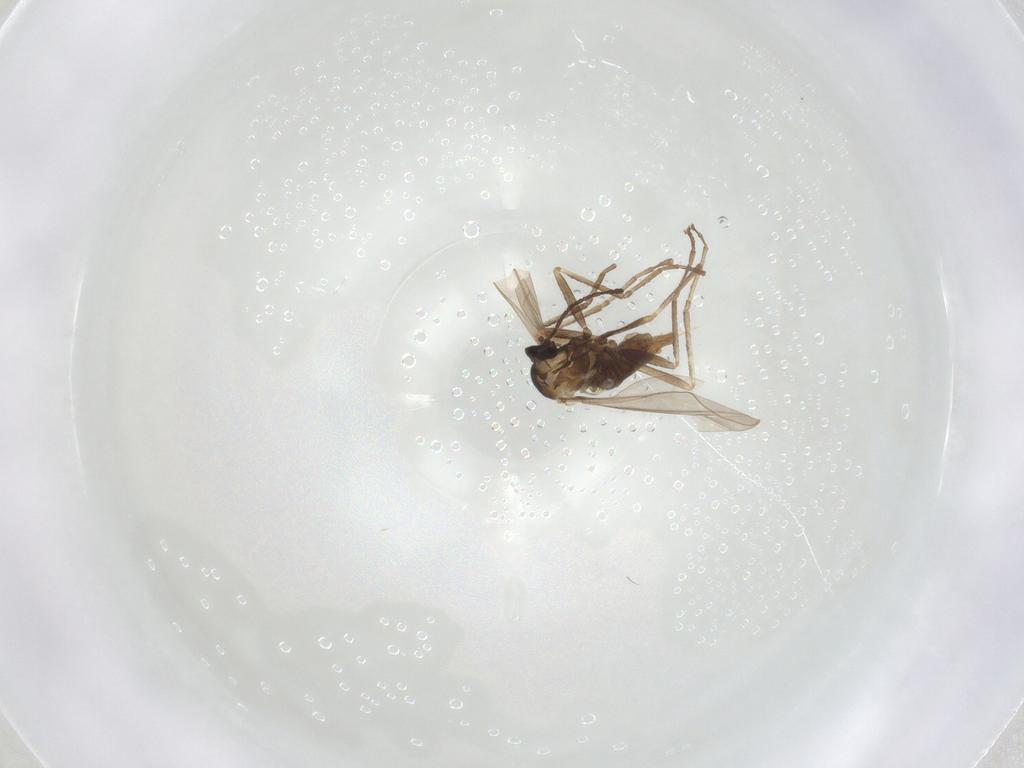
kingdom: Animalia
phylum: Arthropoda
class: Insecta
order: Diptera
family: Cecidomyiidae
